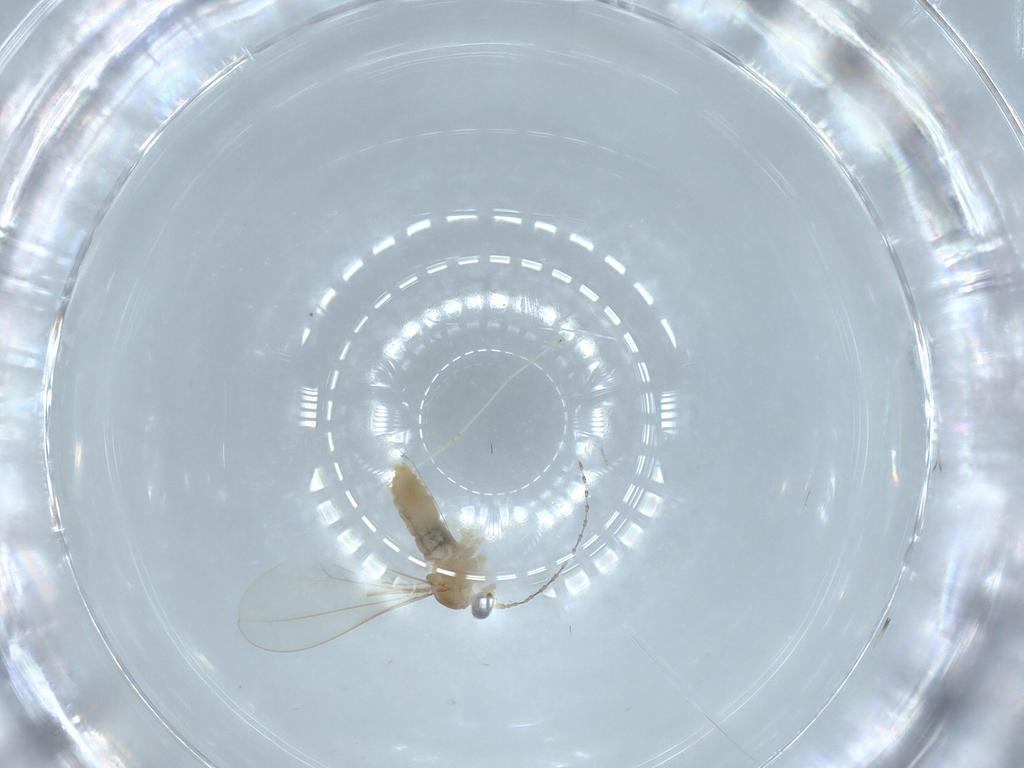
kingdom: Animalia
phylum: Arthropoda
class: Insecta
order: Diptera
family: Cecidomyiidae
